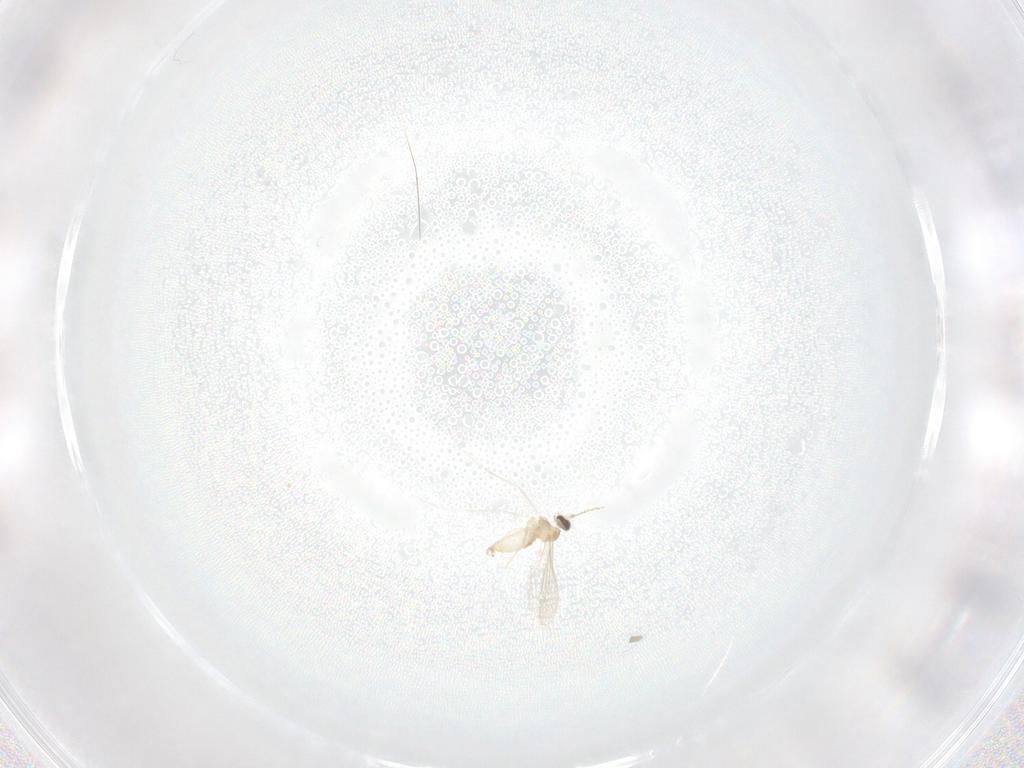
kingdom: Animalia
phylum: Arthropoda
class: Insecta
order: Diptera
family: Cecidomyiidae
